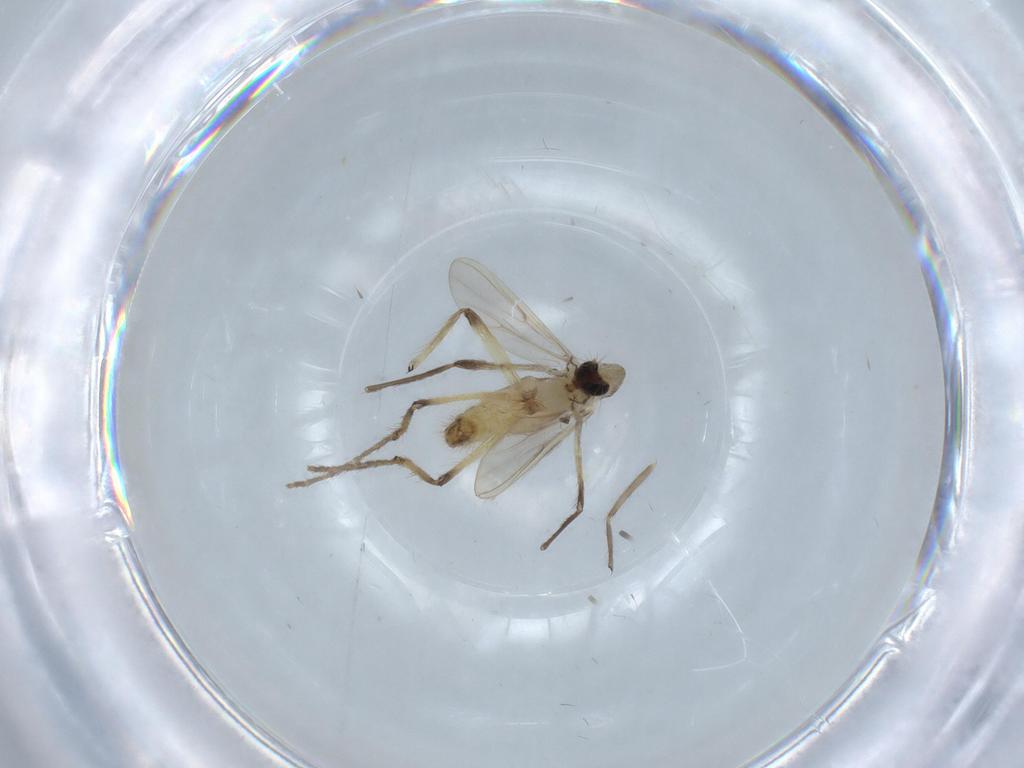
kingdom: Animalia
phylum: Arthropoda
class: Insecta
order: Diptera
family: Chironomidae
